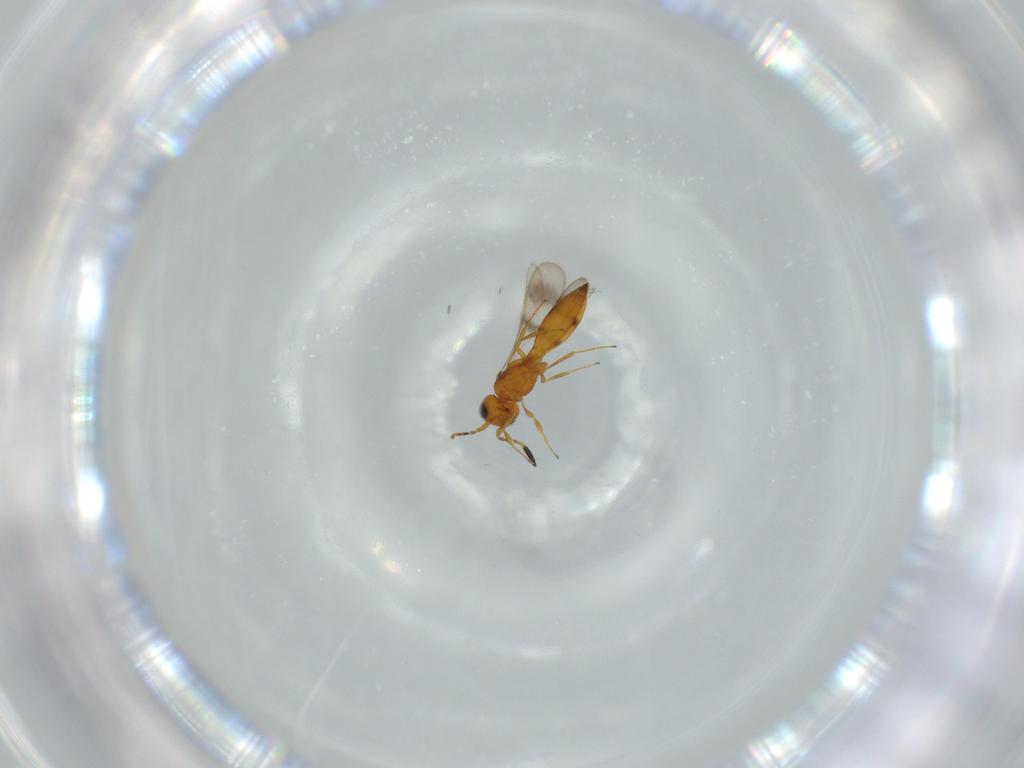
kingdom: Animalia
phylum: Arthropoda
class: Insecta
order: Hymenoptera
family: Scelionidae
